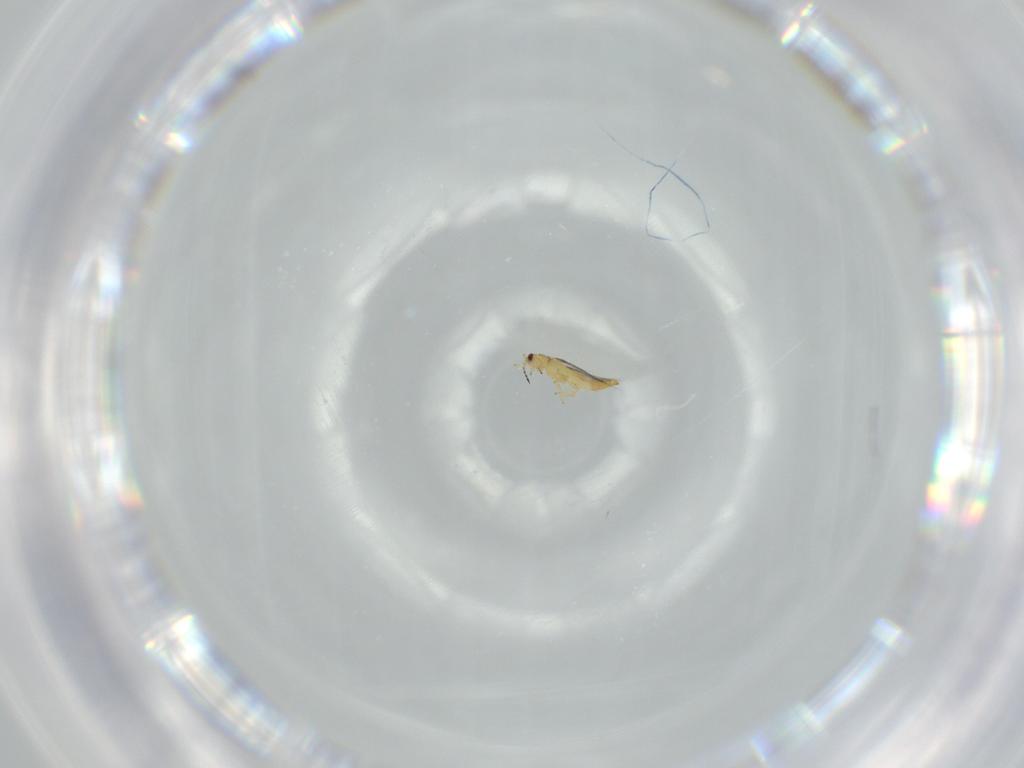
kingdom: Animalia
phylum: Arthropoda
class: Insecta
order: Thysanoptera
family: Thripidae
